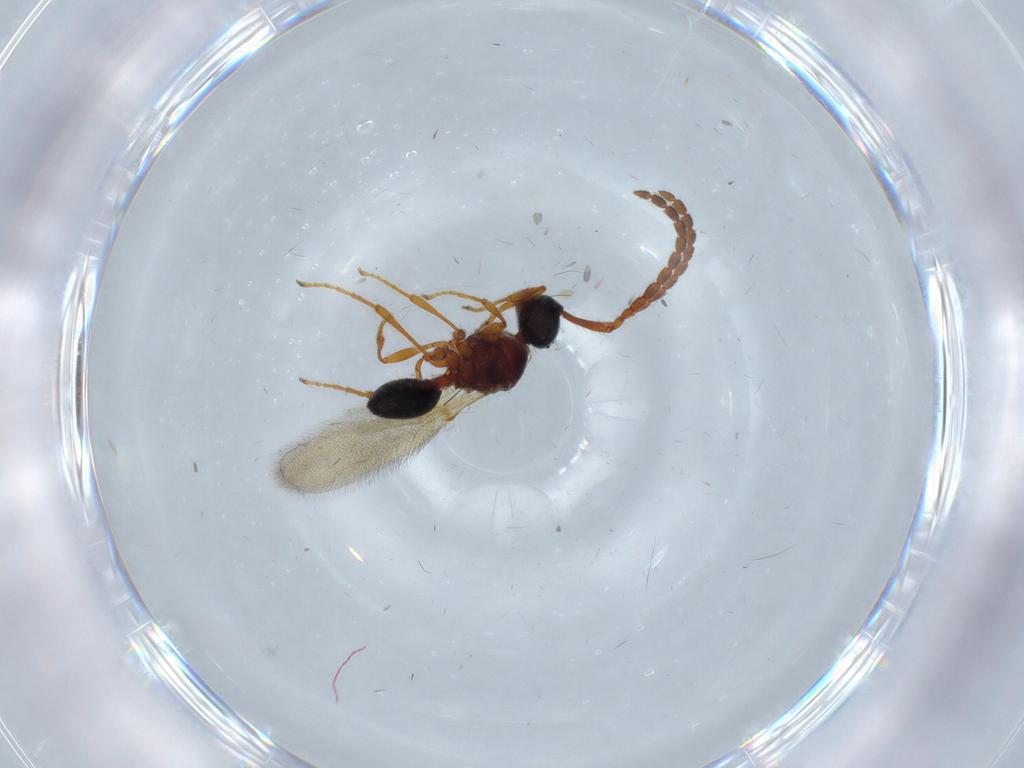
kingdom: Animalia
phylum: Arthropoda
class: Insecta
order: Hymenoptera
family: Diapriidae
